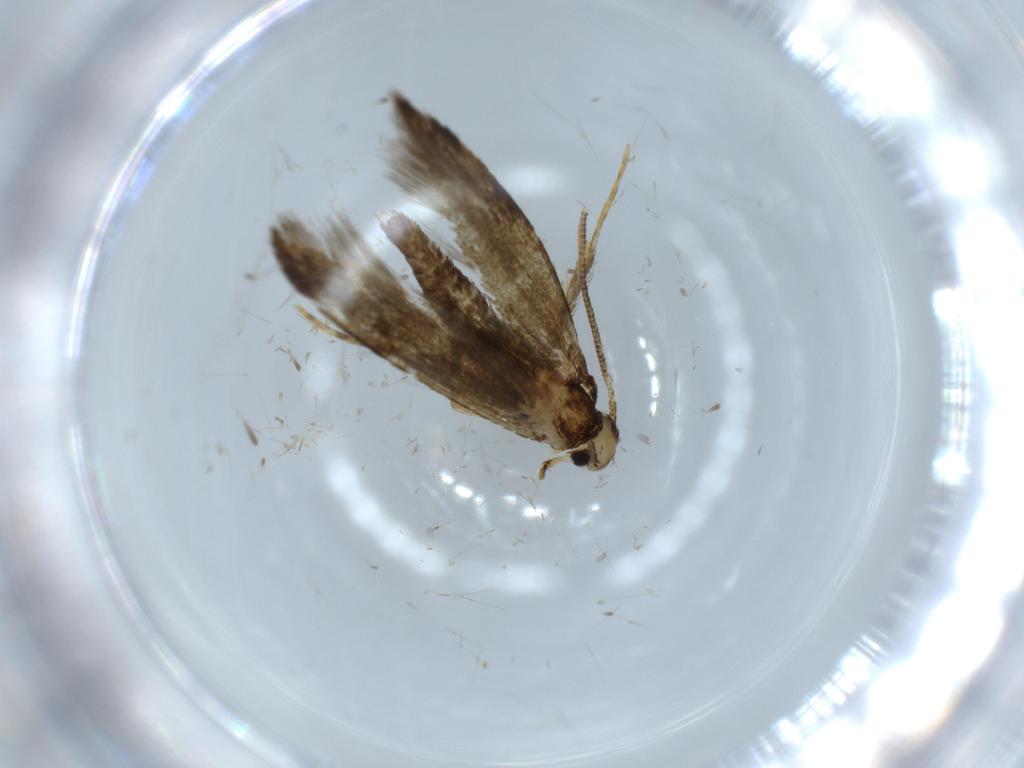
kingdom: Animalia
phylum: Arthropoda
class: Insecta
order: Lepidoptera
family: Tineidae
